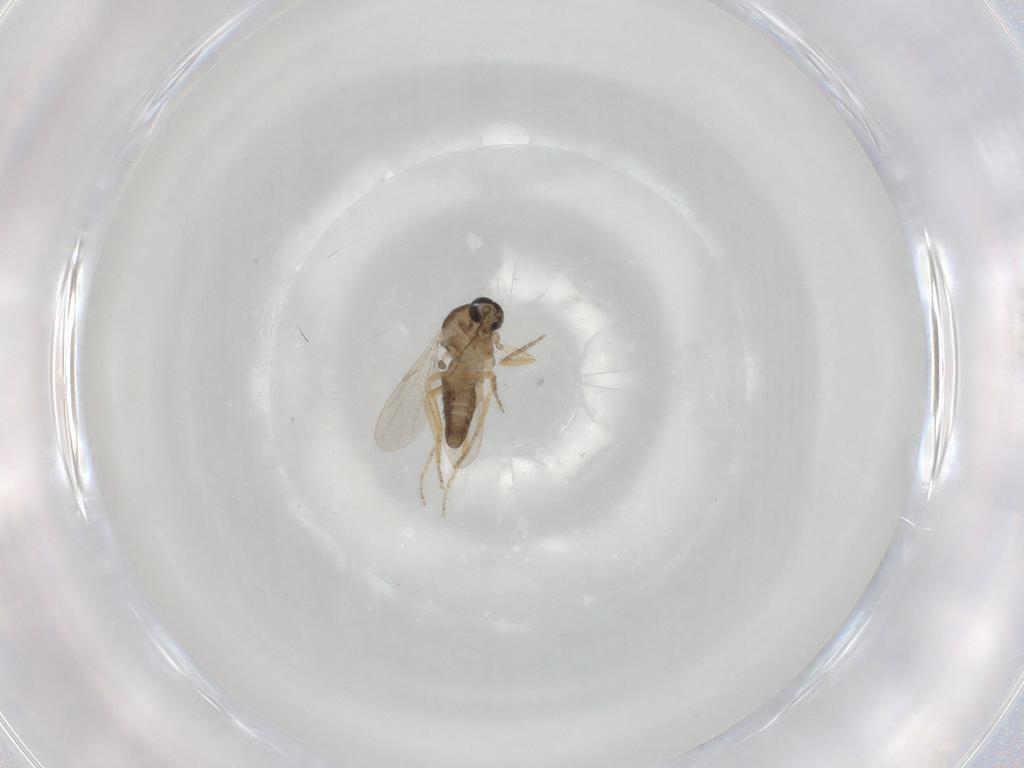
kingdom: Animalia
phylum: Arthropoda
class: Insecta
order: Diptera
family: Ceratopogonidae
